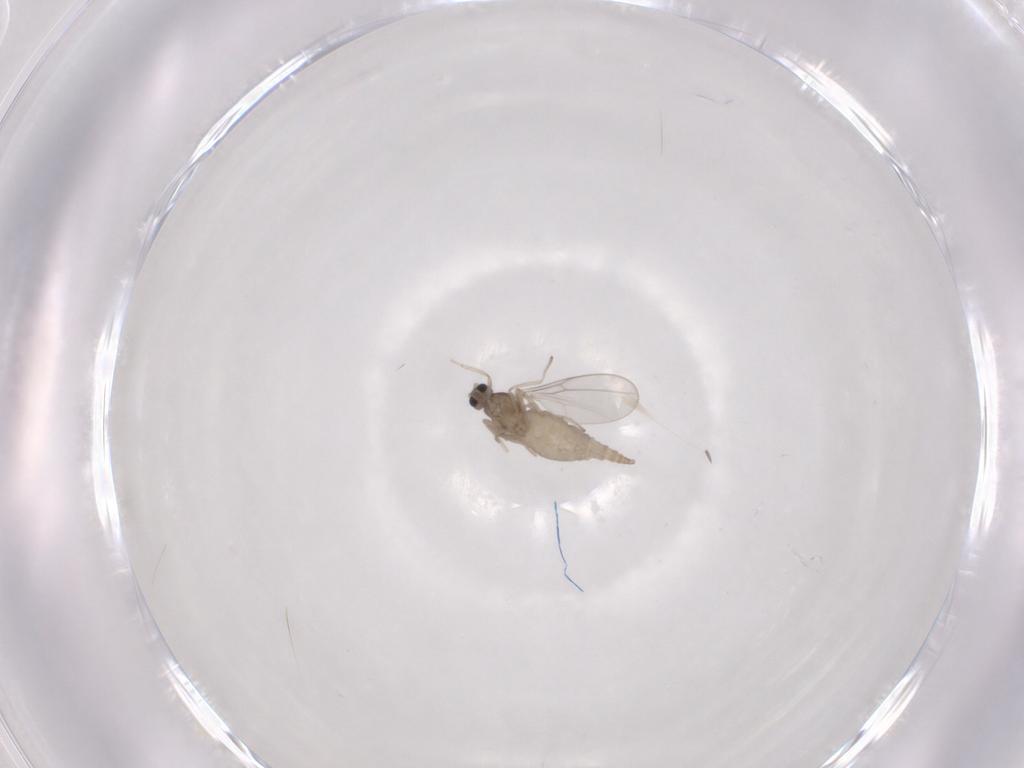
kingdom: Animalia
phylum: Arthropoda
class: Insecta
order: Diptera
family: Cecidomyiidae
